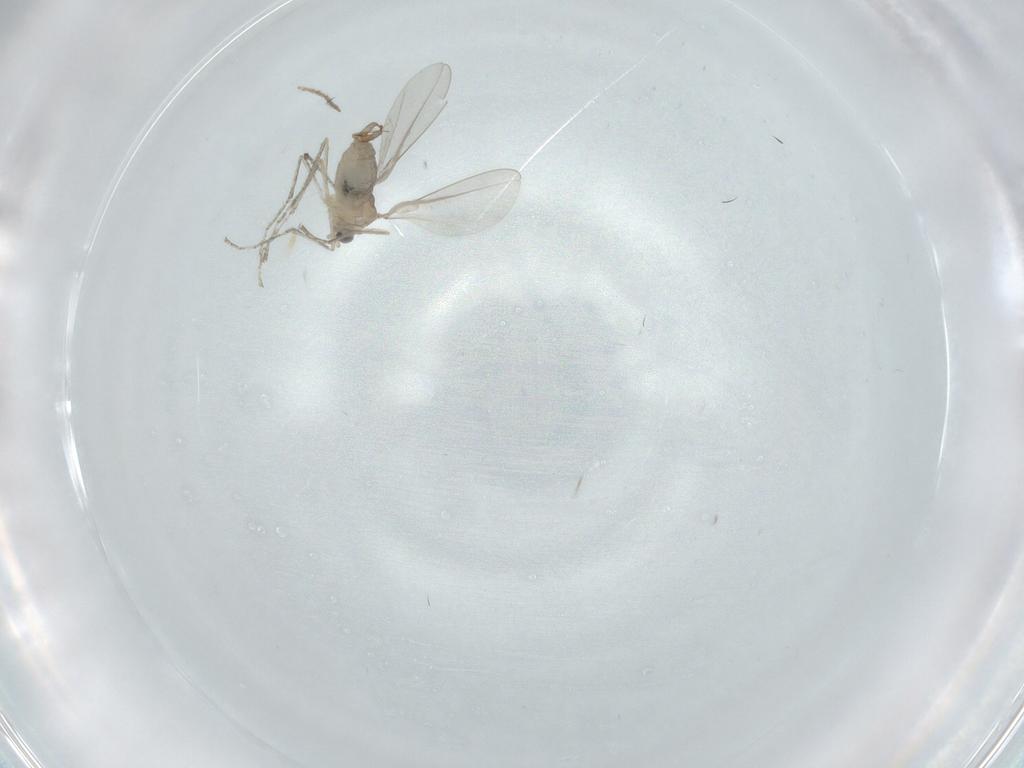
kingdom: Animalia
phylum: Arthropoda
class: Insecta
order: Diptera
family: Cecidomyiidae
